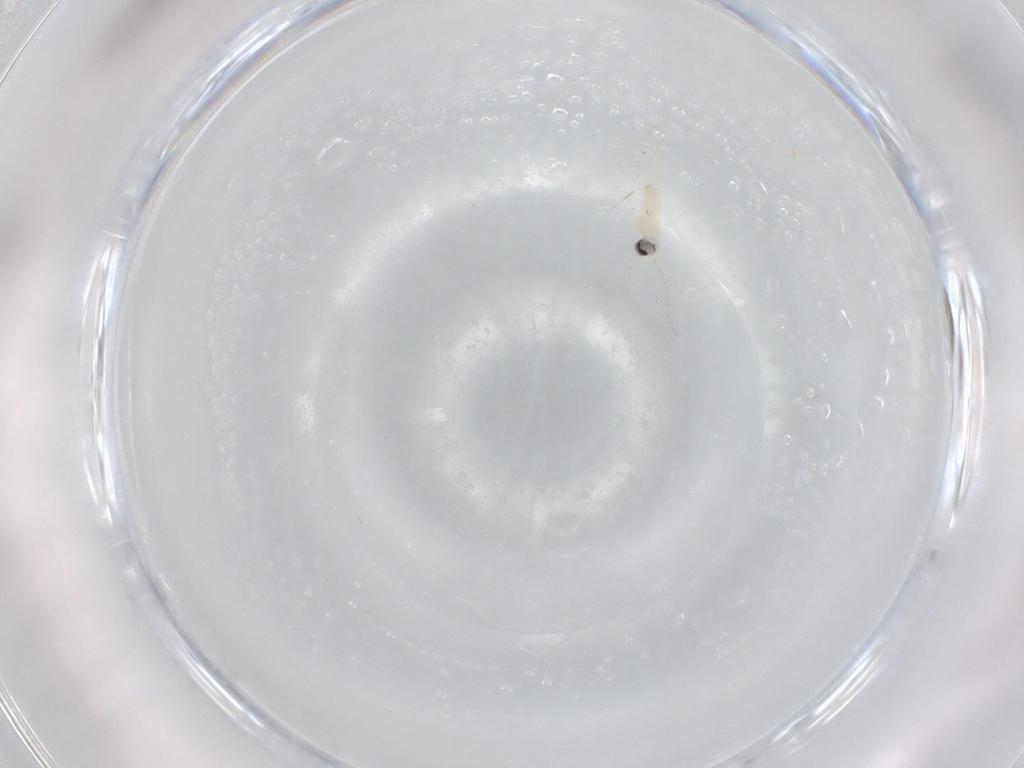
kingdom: Animalia
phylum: Arthropoda
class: Insecta
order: Diptera
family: Cecidomyiidae
